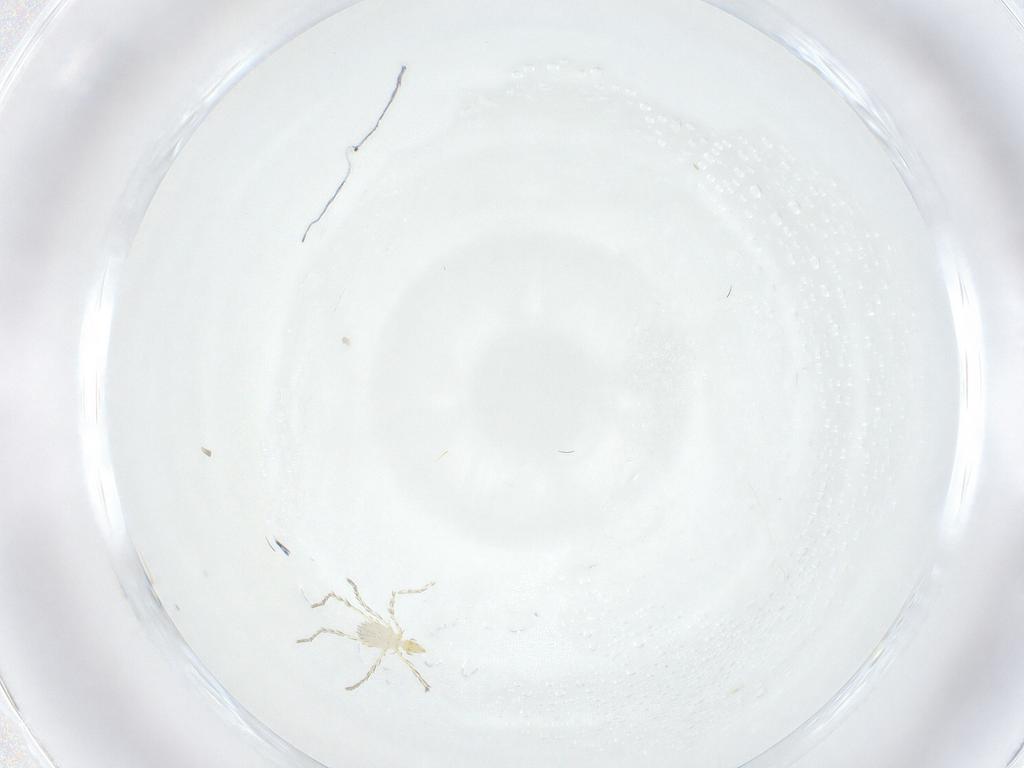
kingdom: Animalia
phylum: Arthropoda
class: Arachnida
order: Trombidiformes
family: Erythraeidae
